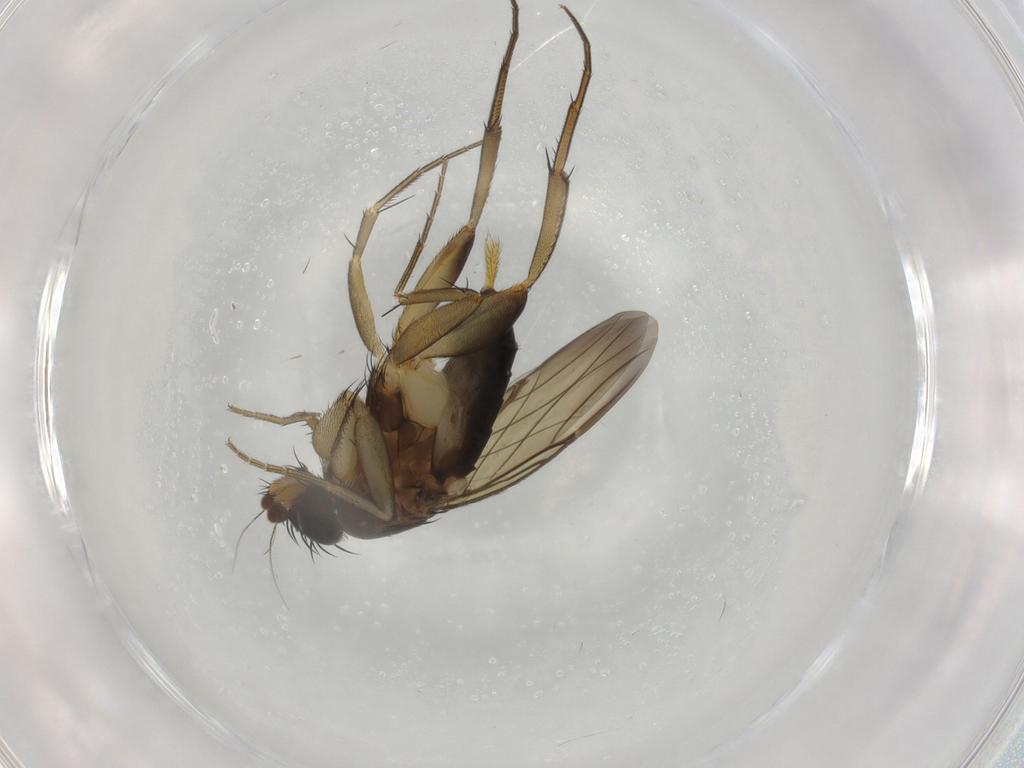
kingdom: Animalia
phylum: Arthropoda
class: Insecta
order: Diptera
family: Phoridae
